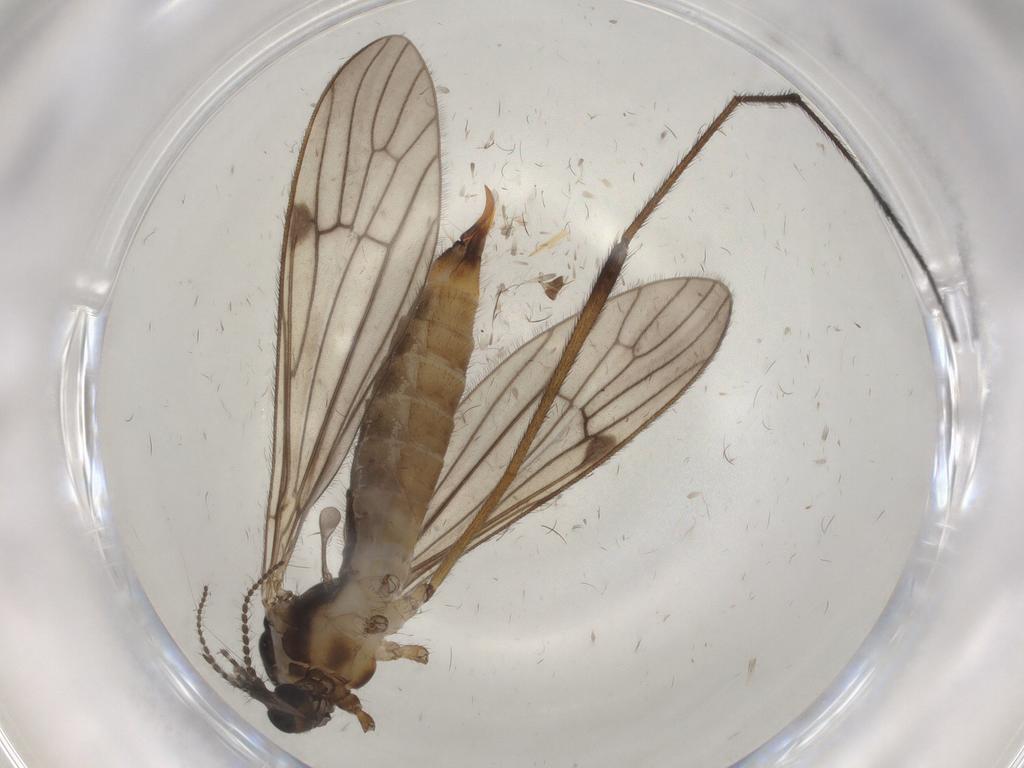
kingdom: Animalia
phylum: Arthropoda
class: Insecta
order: Diptera
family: Limoniidae
